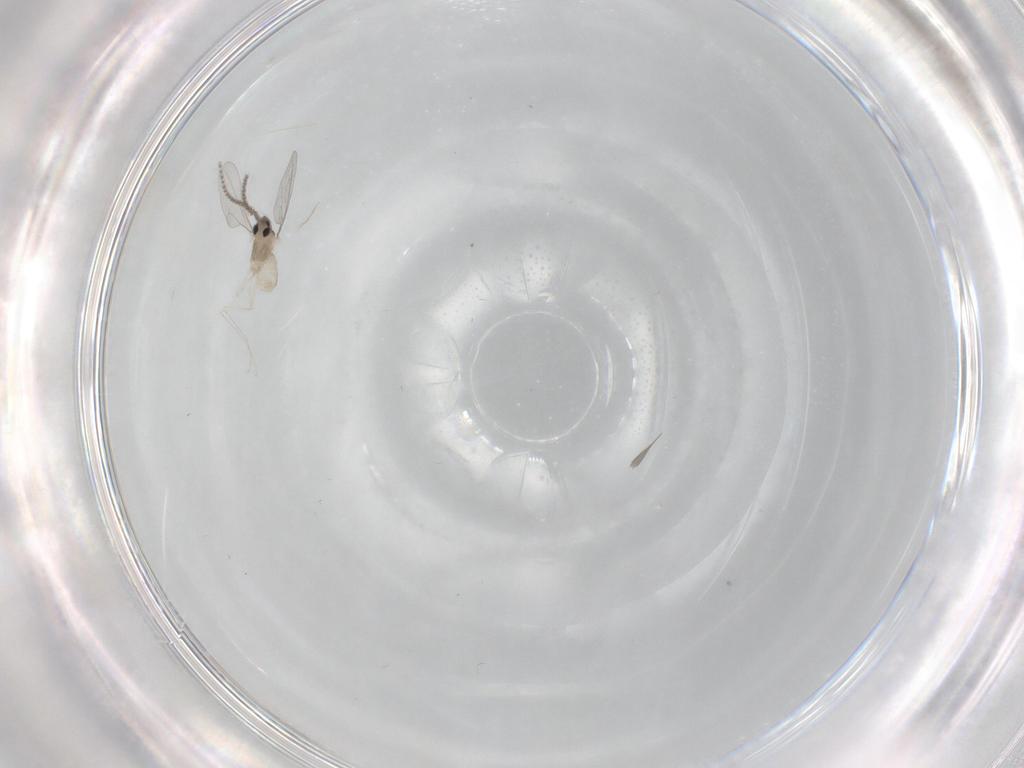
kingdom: Animalia
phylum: Arthropoda
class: Insecta
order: Diptera
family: Cecidomyiidae
